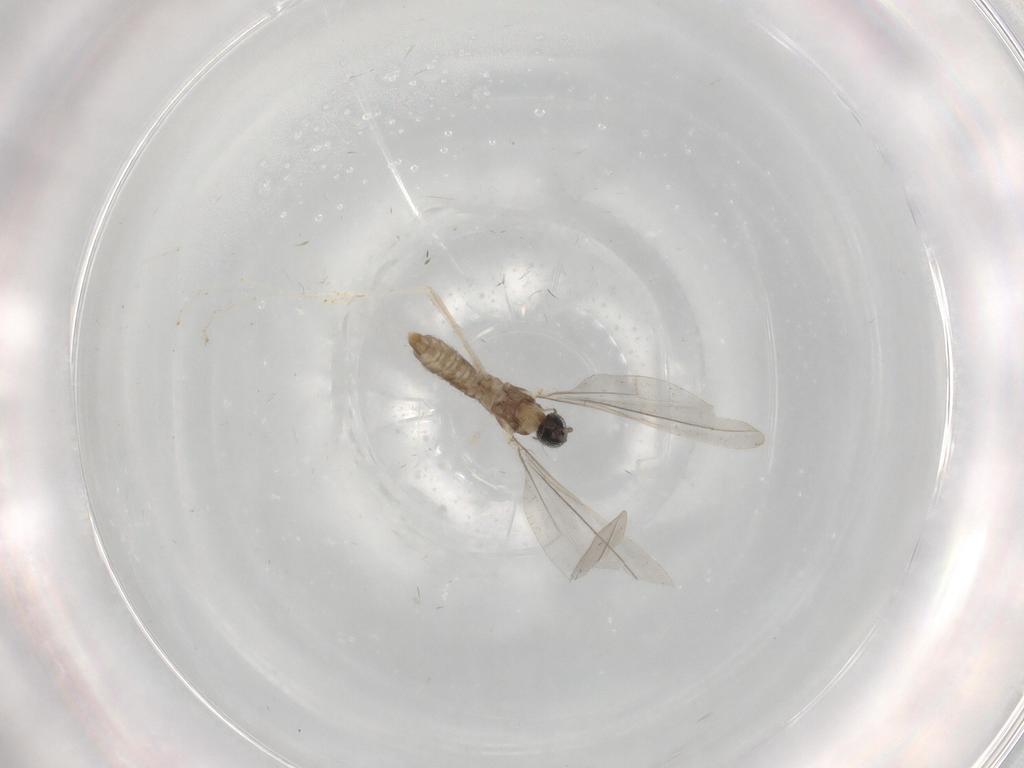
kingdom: Animalia
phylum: Arthropoda
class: Insecta
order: Diptera
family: Cecidomyiidae
